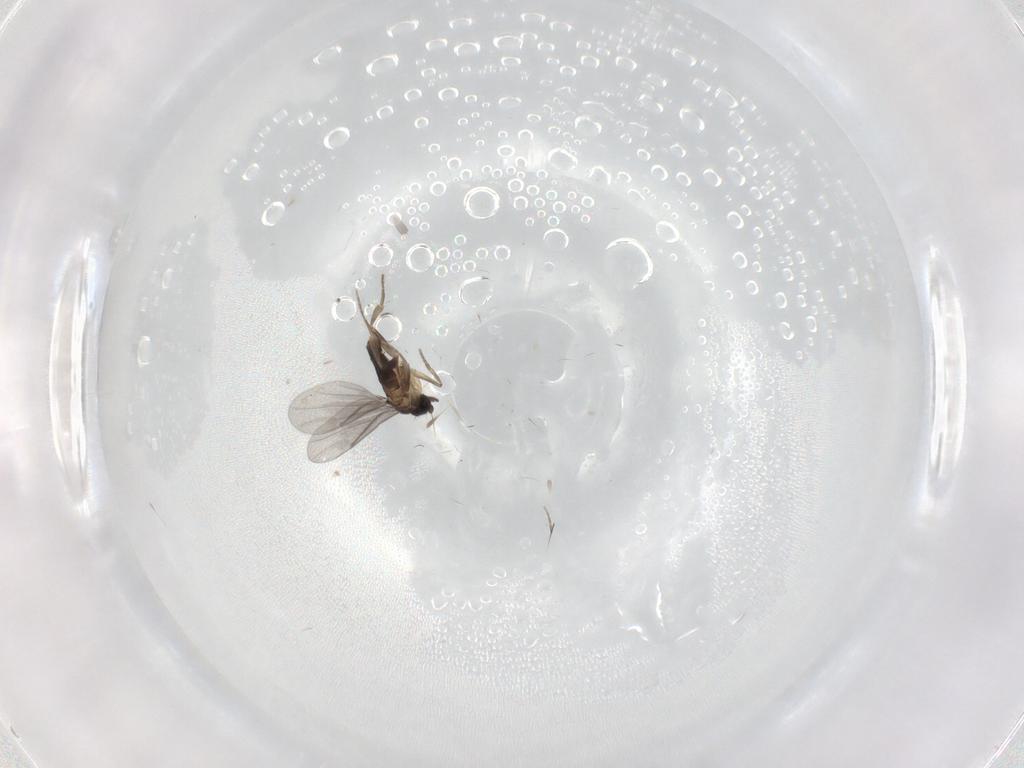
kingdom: Animalia
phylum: Arthropoda
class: Insecta
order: Diptera
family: Phoridae
